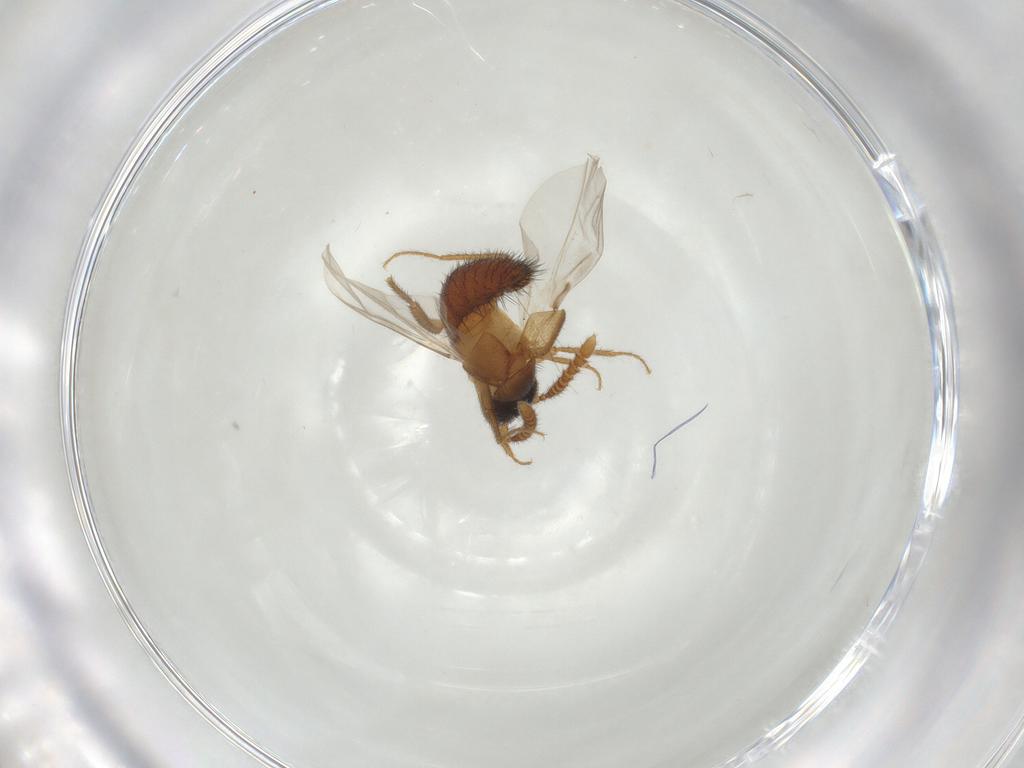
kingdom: Animalia
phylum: Arthropoda
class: Insecta
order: Coleoptera
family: Staphylinidae
